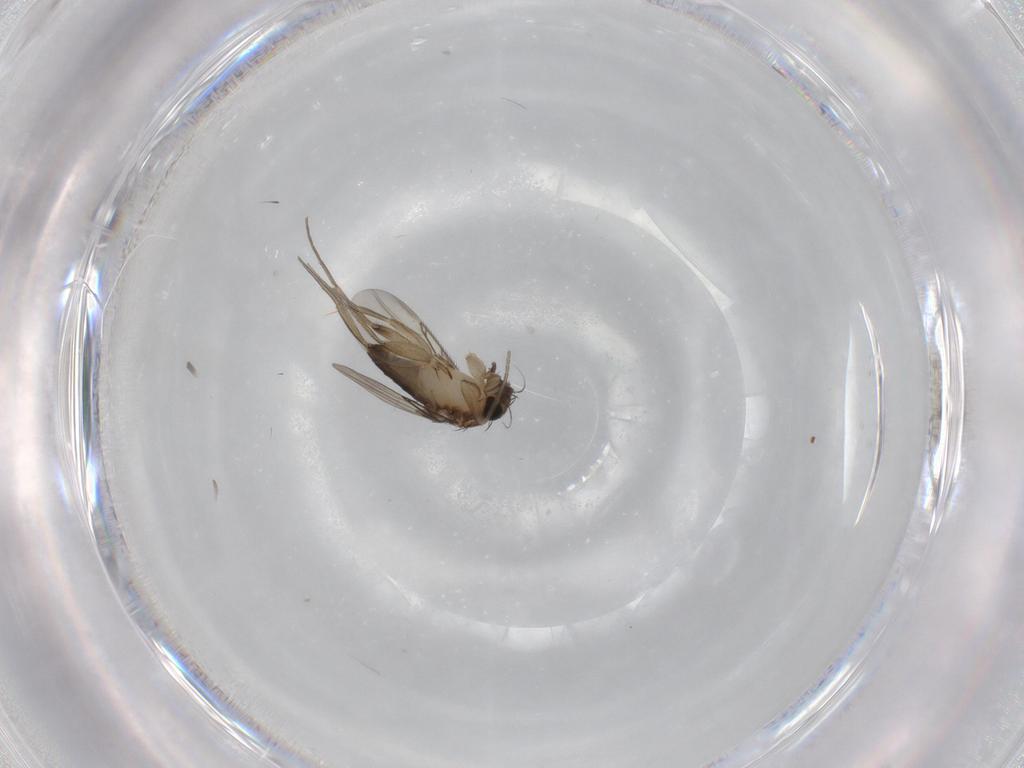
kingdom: Animalia
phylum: Arthropoda
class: Insecta
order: Diptera
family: Phoridae
